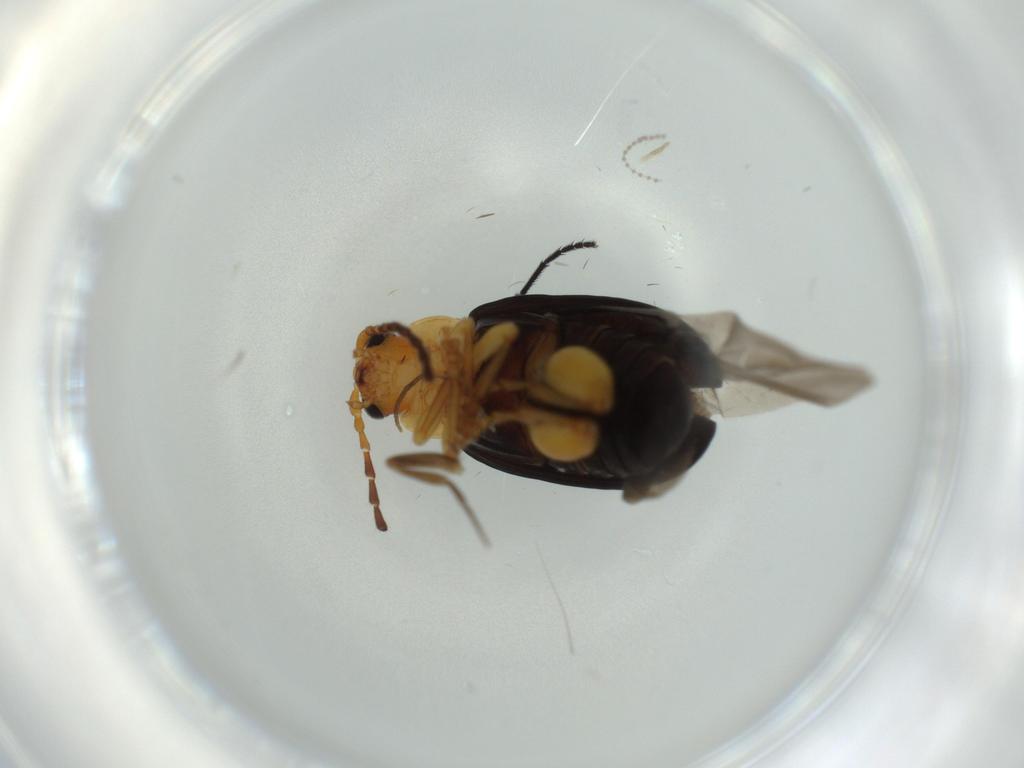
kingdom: Animalia
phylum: Arthropoda
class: Insecta
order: Coleoptera
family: Chrysomelidae
